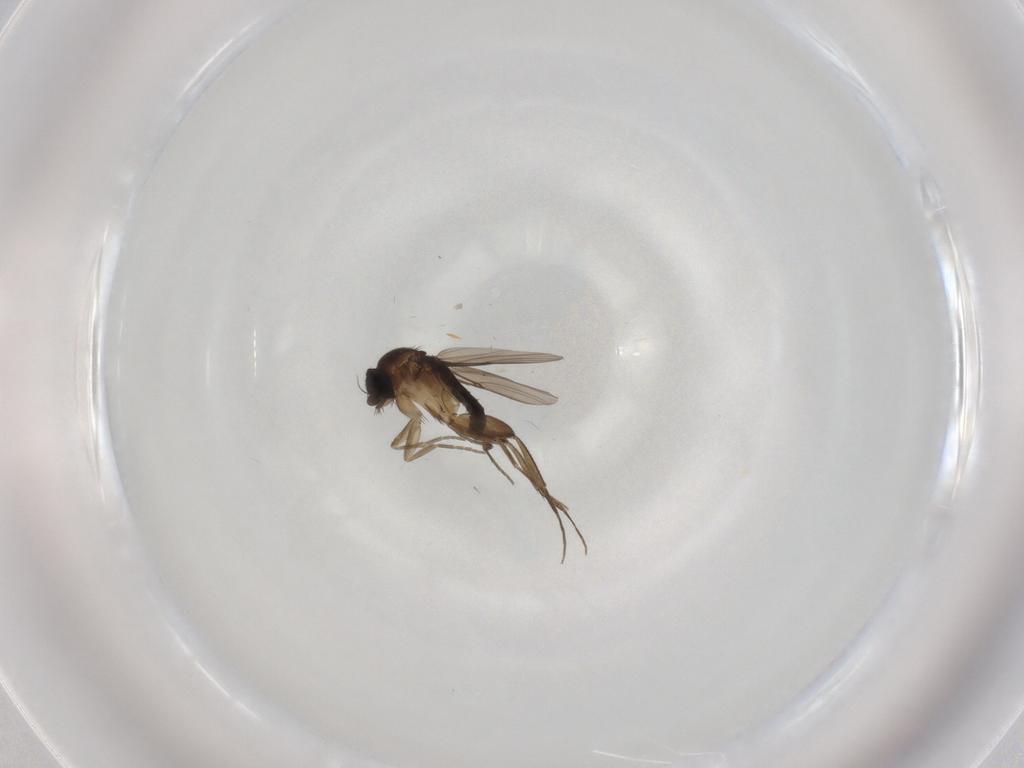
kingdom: Animalia
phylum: Arthropoda
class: Insecta
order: Diptera
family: Phoridae
